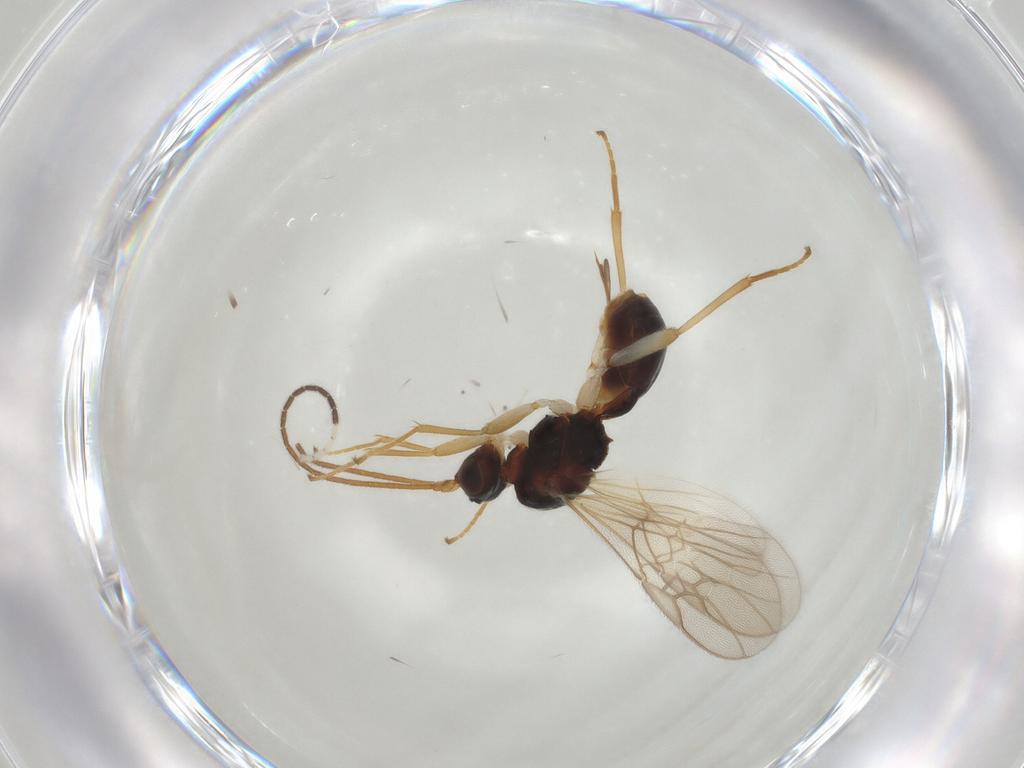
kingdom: Animalia
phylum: Arthropoda
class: Insecta
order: Hymenoptera
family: Braconidae
